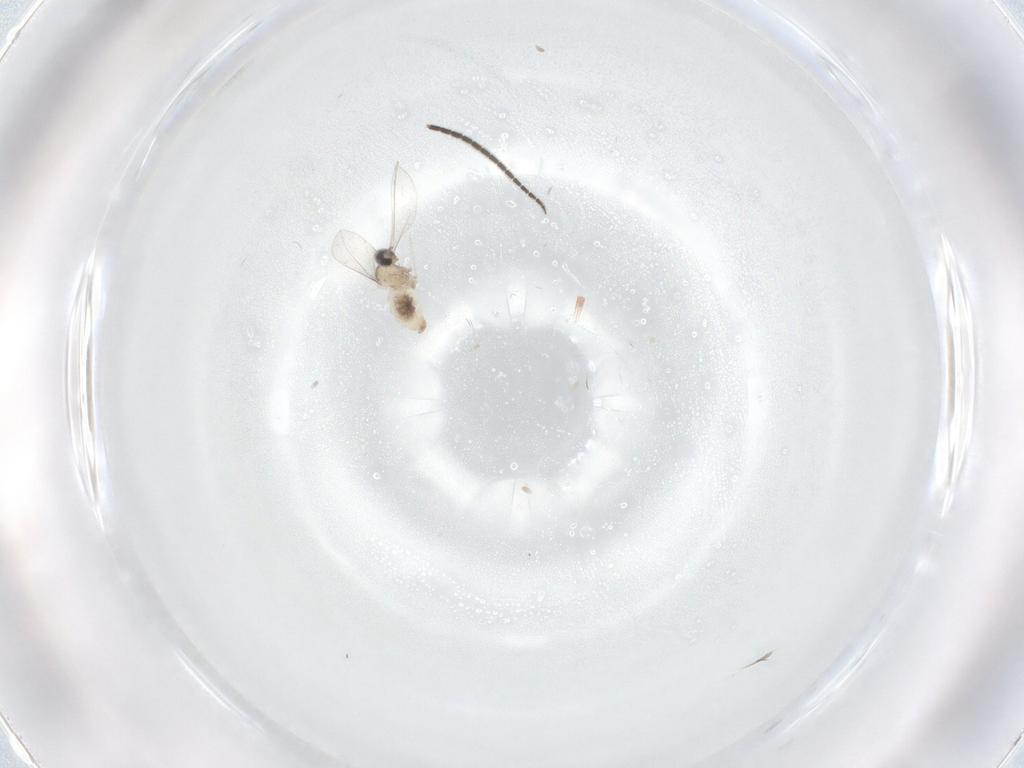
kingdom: Animalia
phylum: Arthropoda
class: Insecta
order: Diptera
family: Cecidomyiidae
